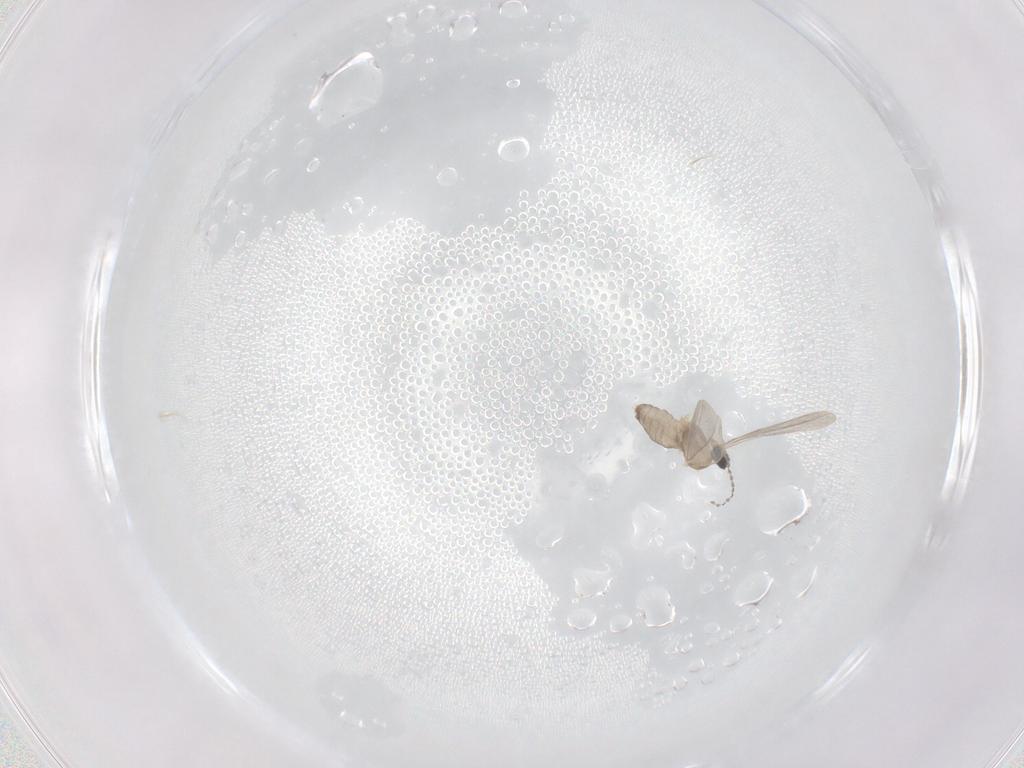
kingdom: Animalia
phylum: Arthropoda
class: Insecta
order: Diptera
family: Cecidomyiidae
